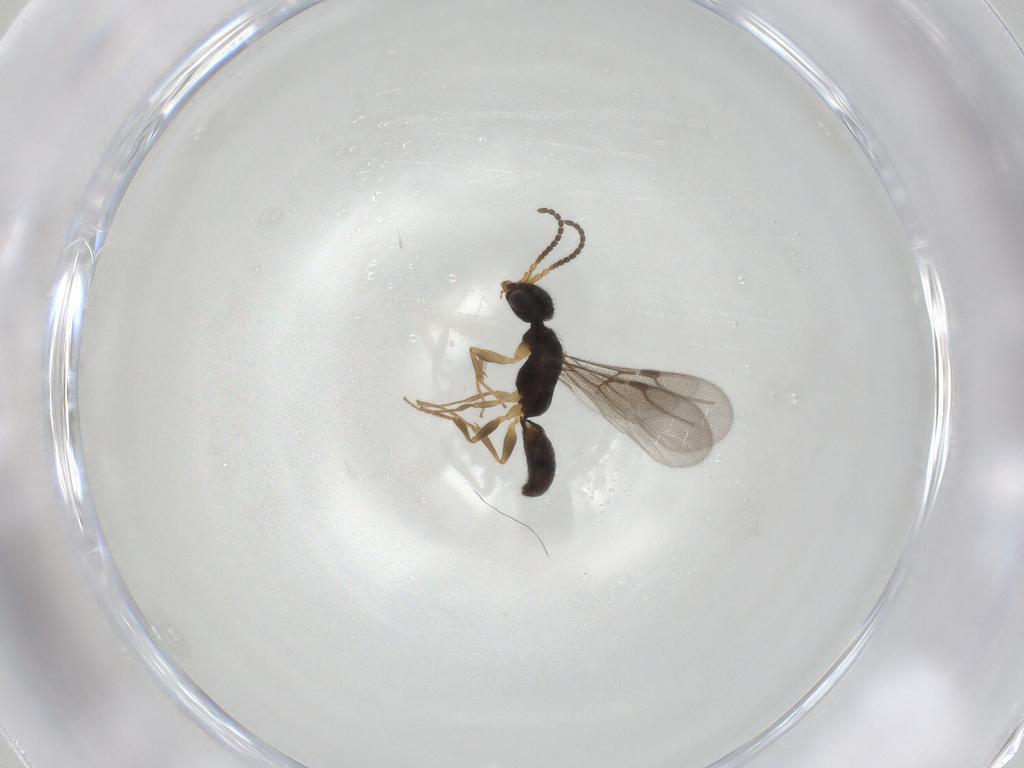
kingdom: Animalia
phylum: Arthropoda
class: Insecta
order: Hymenoptera
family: Bethylidae
